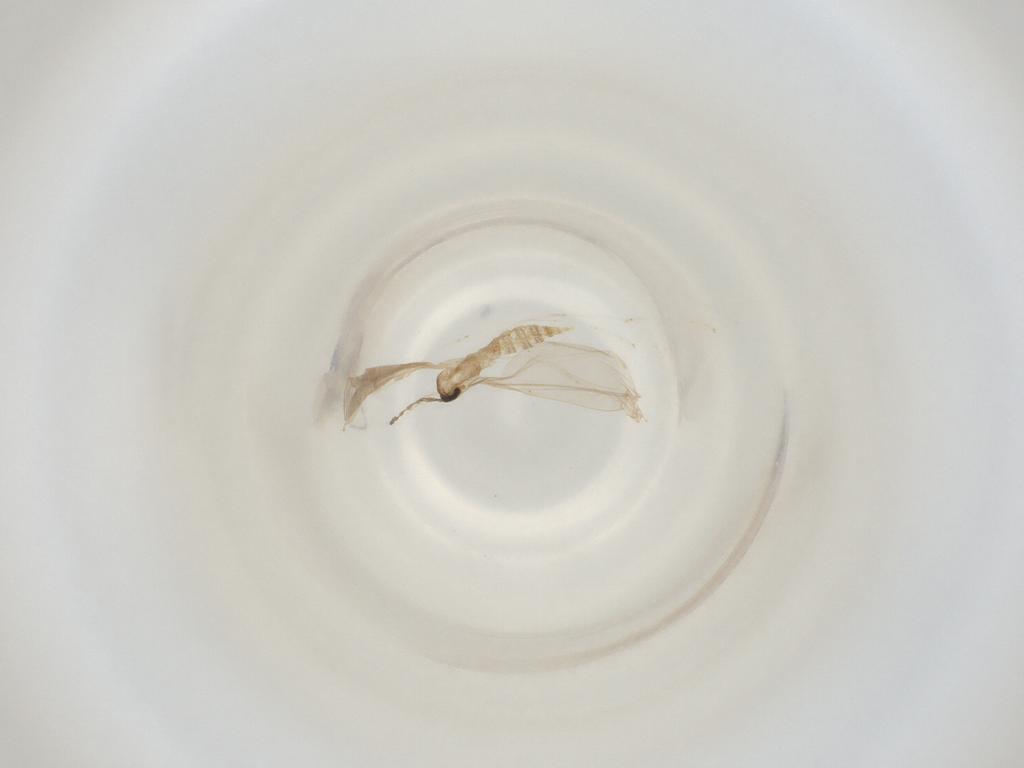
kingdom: Animalia
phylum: Arthropoda
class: Insecta
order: Diptera
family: Cecidomyiidae
